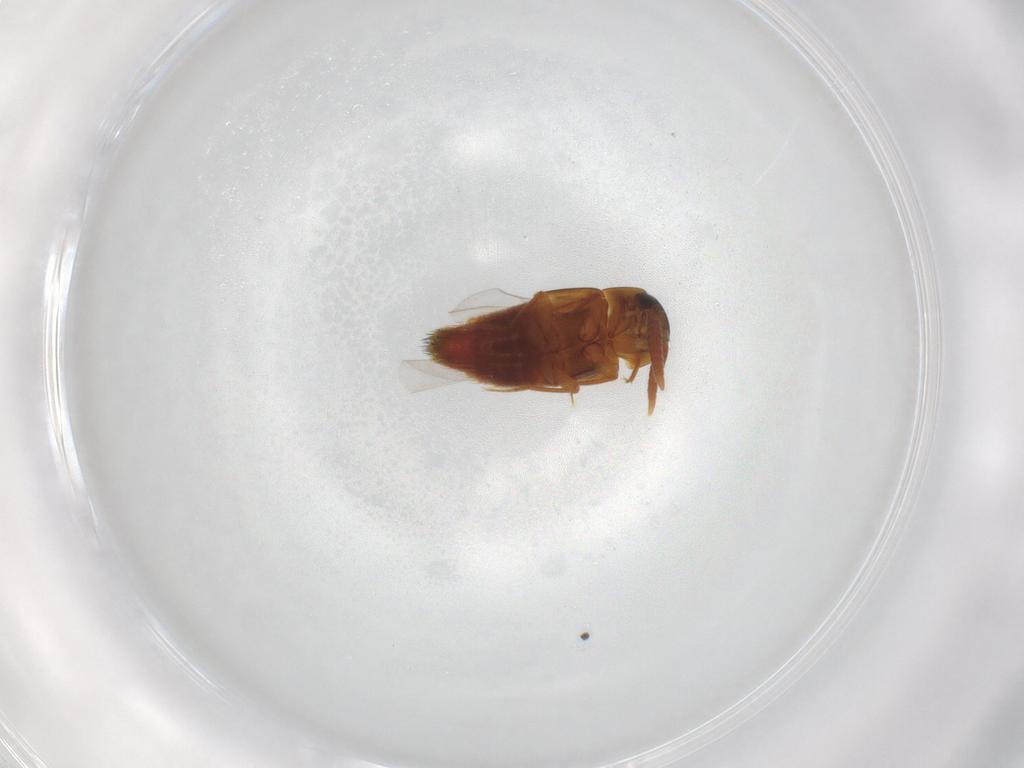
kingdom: Animalia
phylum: Arthropoda
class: Insecta
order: Coleoptera
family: Staphylinidae
